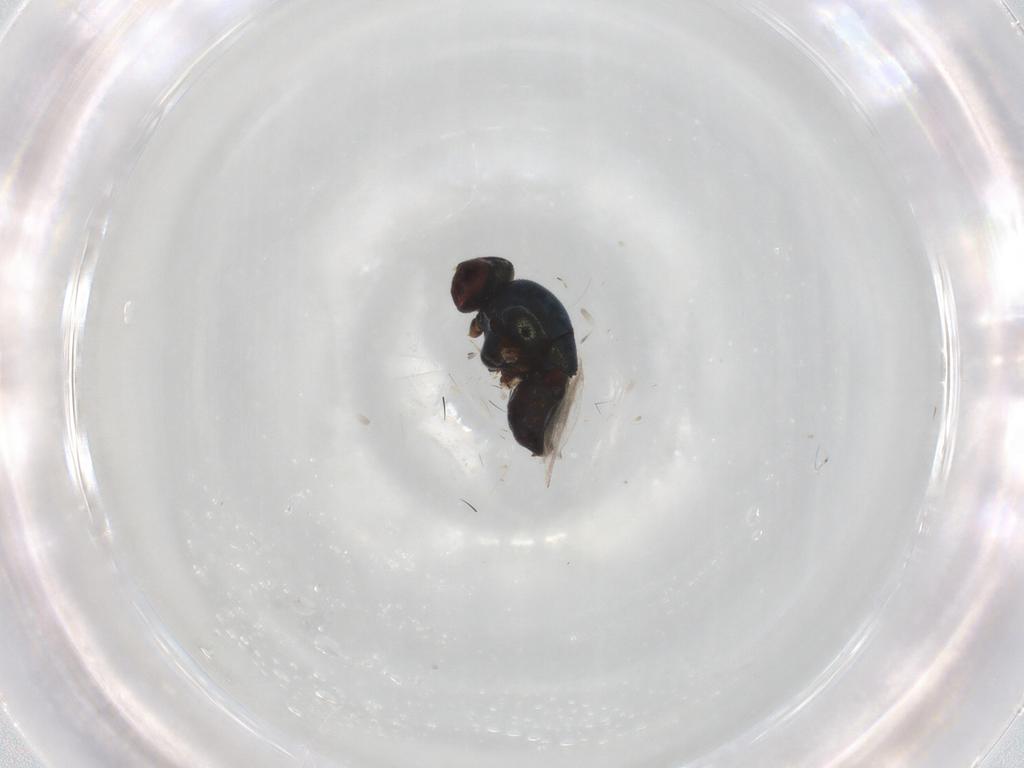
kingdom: Animalia
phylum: Arthropoda
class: Insecta
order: Diptera
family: Chloropidae
